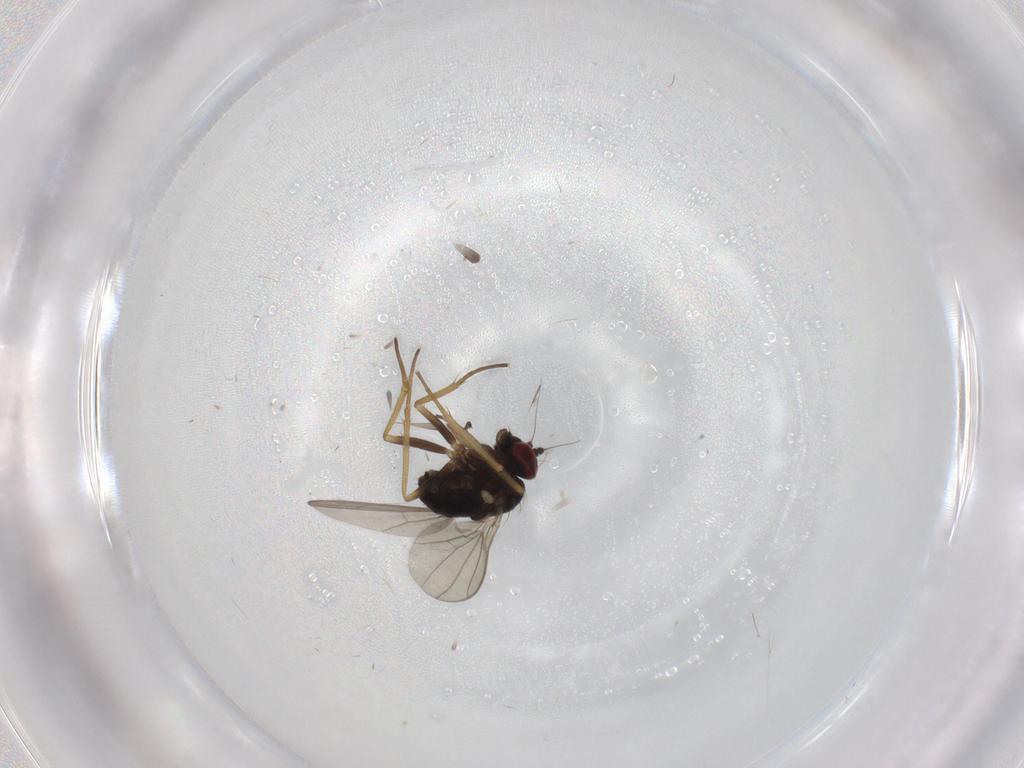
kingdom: Animalia
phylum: Arthropoda
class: Insecta
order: Diptera
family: Dolichopodidae
